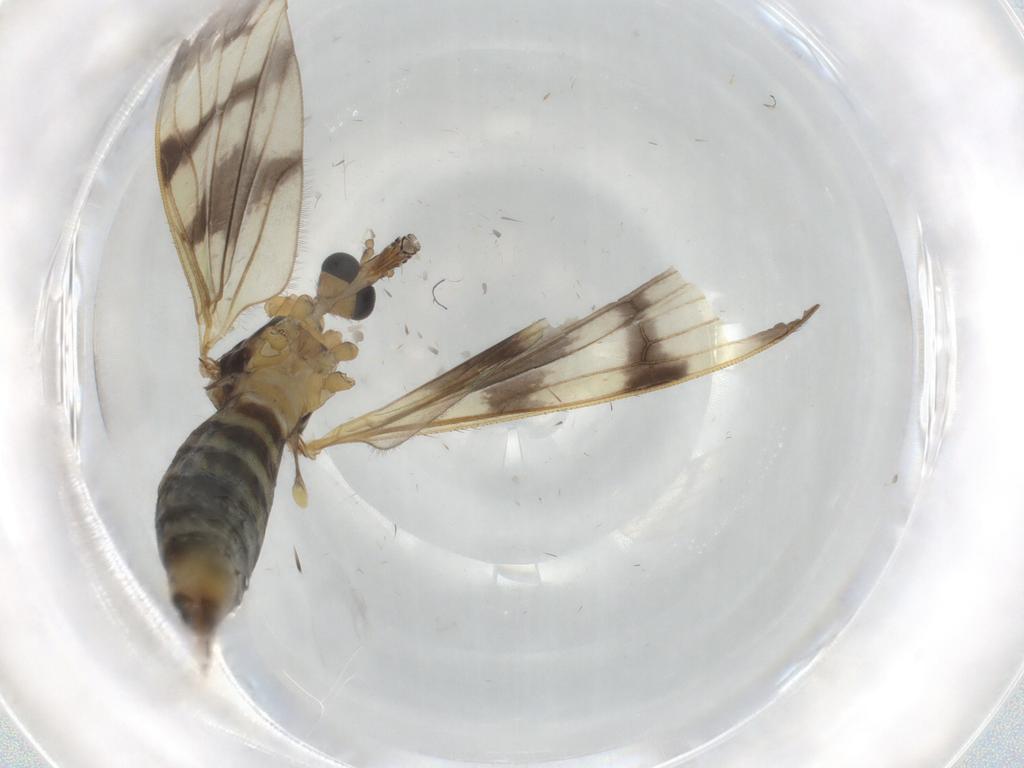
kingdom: Animalia
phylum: Arthropoda
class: Insecta
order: Diptera
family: Limoniidae
